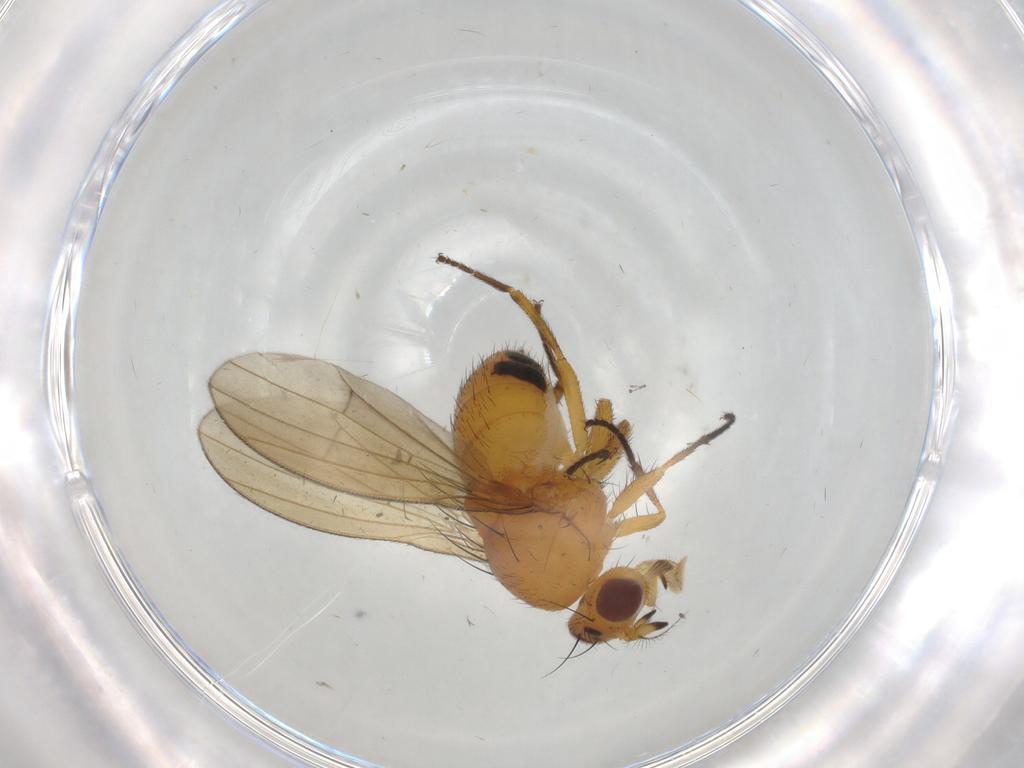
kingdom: Animalia
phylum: Arthropoda
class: Insecta
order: Diptera
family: Lauxaniidae
